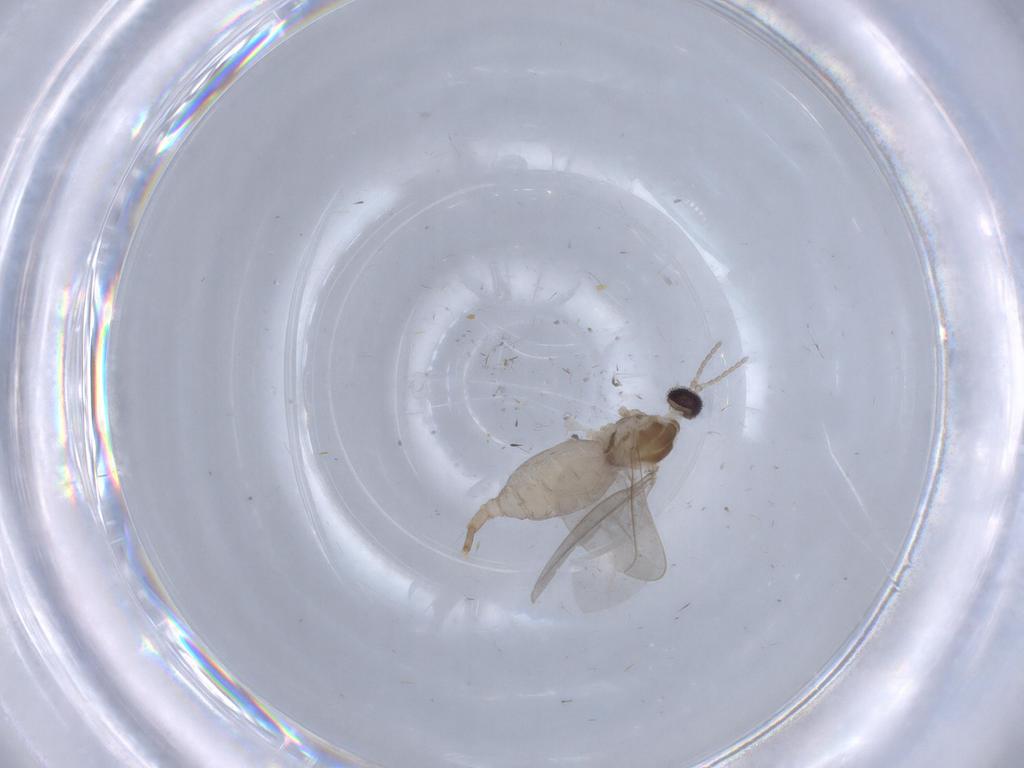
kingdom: Animalia
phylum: Arthropoda
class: Insecta
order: Diptera
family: Cecidomyiidae
